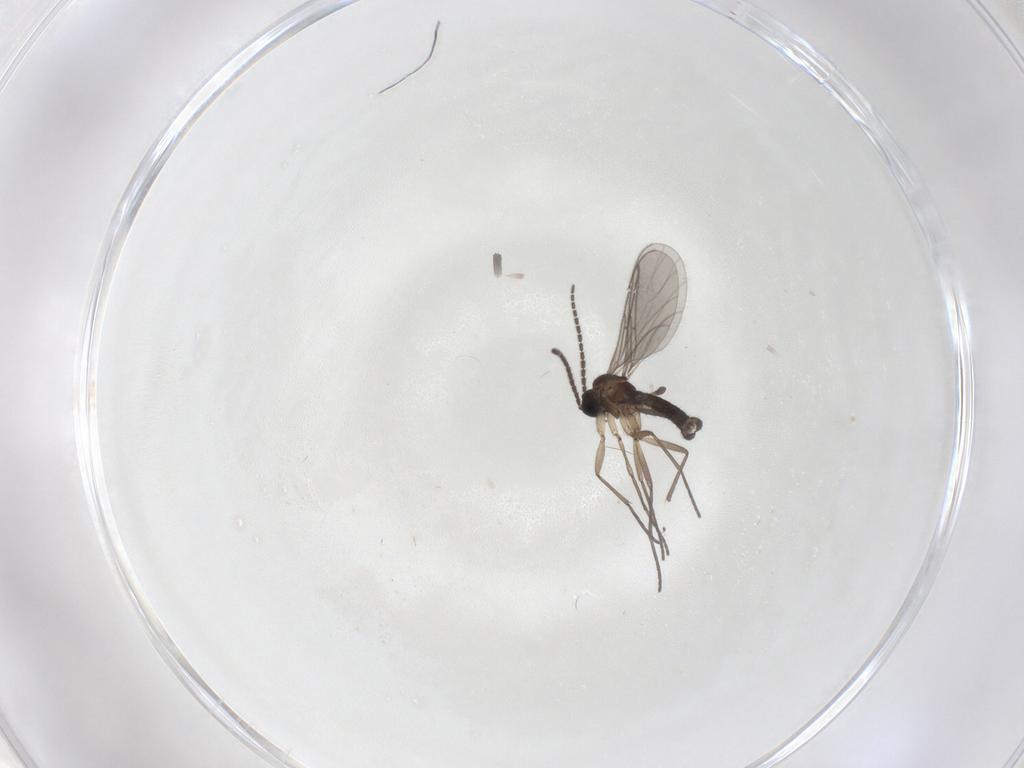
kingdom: Animalia
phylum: Arthropoda
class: Insecta
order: Diptera
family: Sciaridae
